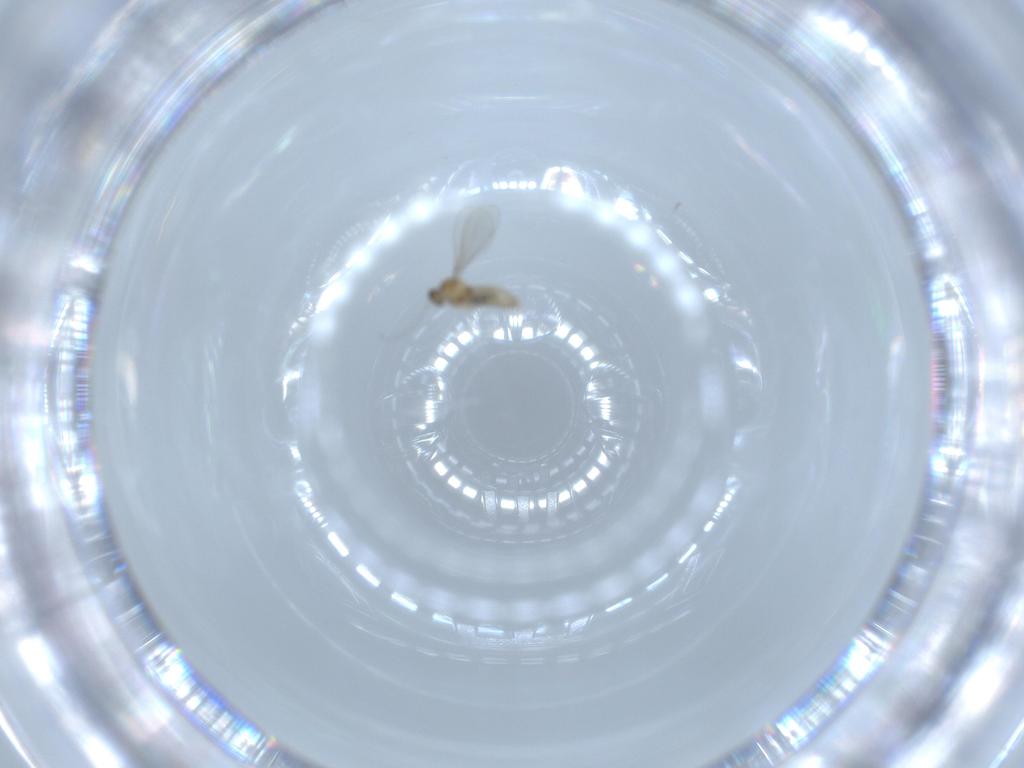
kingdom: Animalia
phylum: Arthropoda
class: Insecta
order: Diptera
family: Cecidomyiidae
